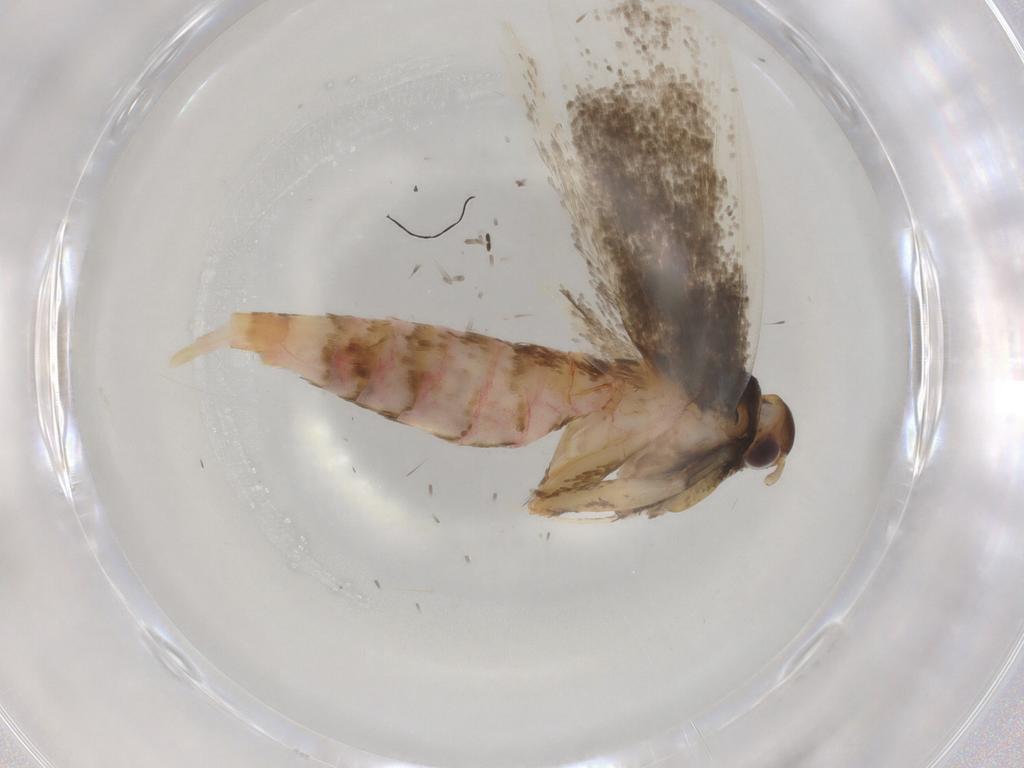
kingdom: Animalia
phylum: Arthropoda
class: Insecta
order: Lepidoptera
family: Lecithoceridae
